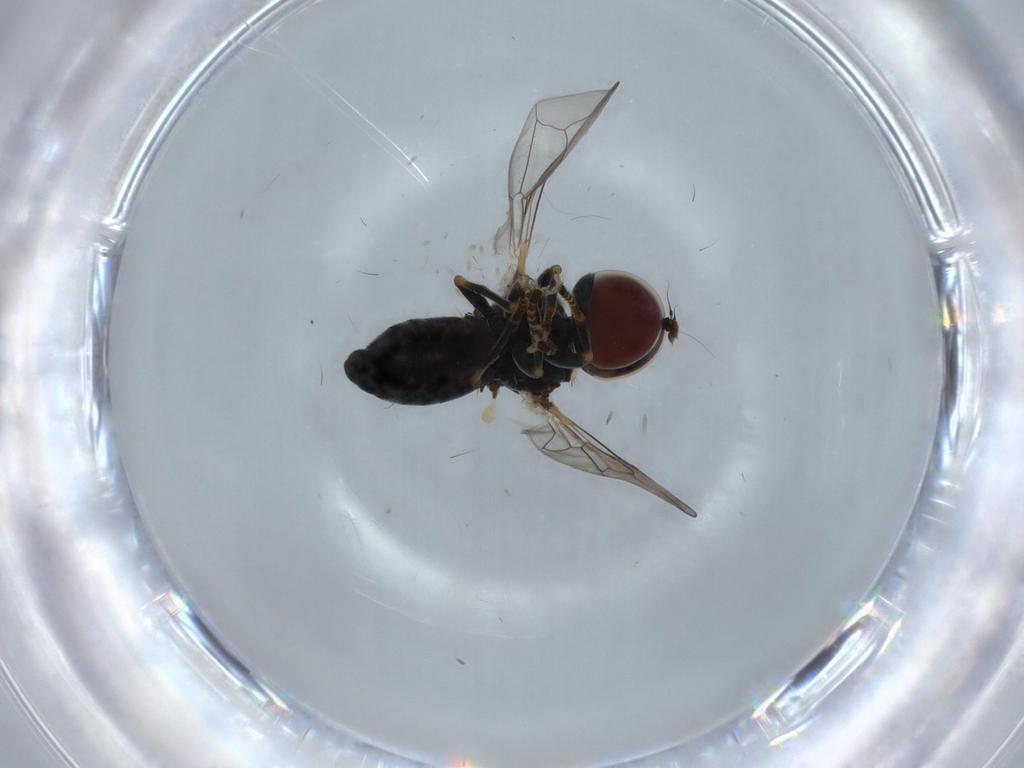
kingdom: Animalia
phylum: Arthropoda
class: Insecta
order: Diptera
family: Pipunculidae
